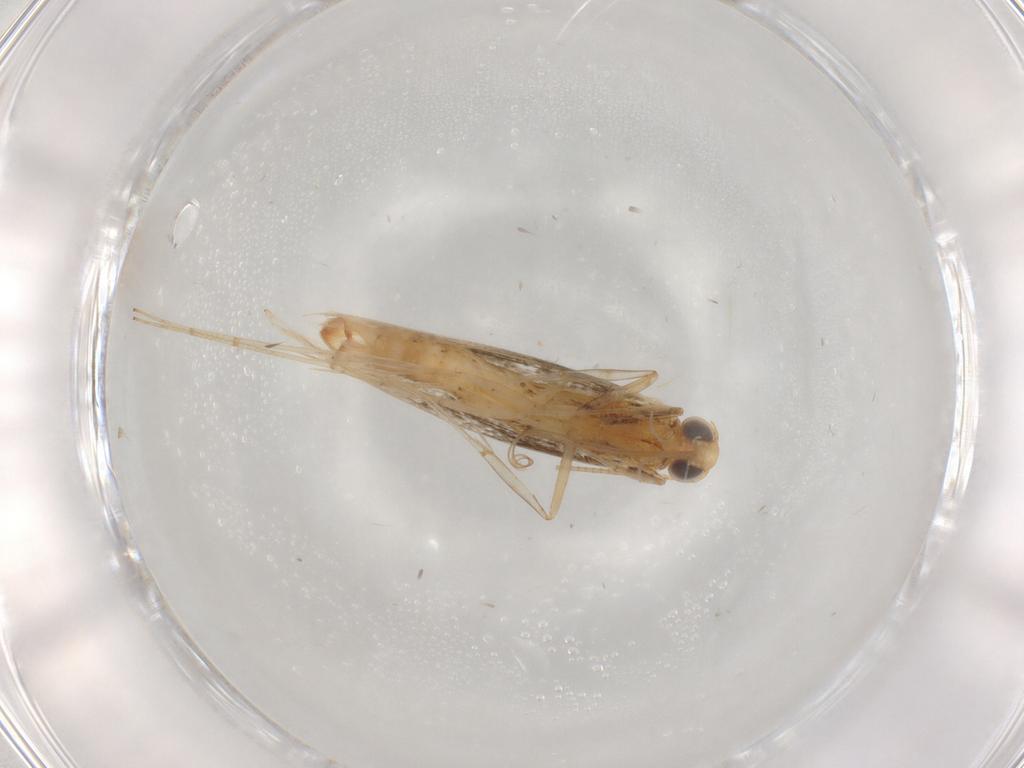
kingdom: Animalia
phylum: Arthropoda
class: Insecta
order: Lepidoptera
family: Gracillariidae
